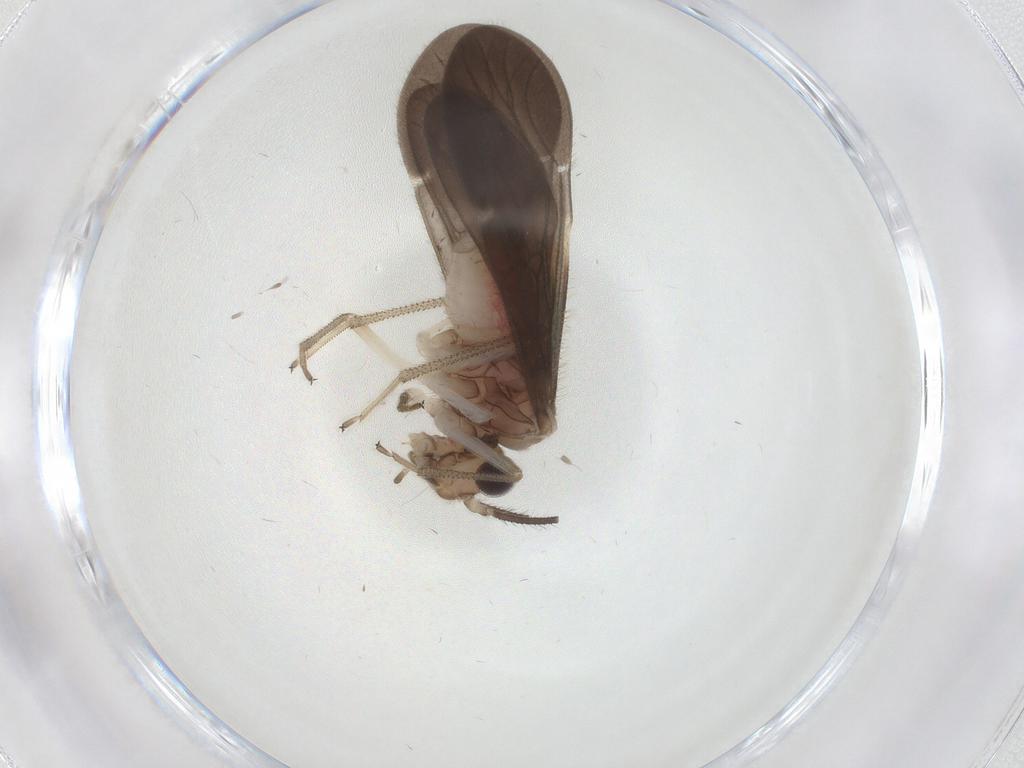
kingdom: Animalia
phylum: Arthropoda
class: Insecta
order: Psocodea
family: Amphipsocidae
